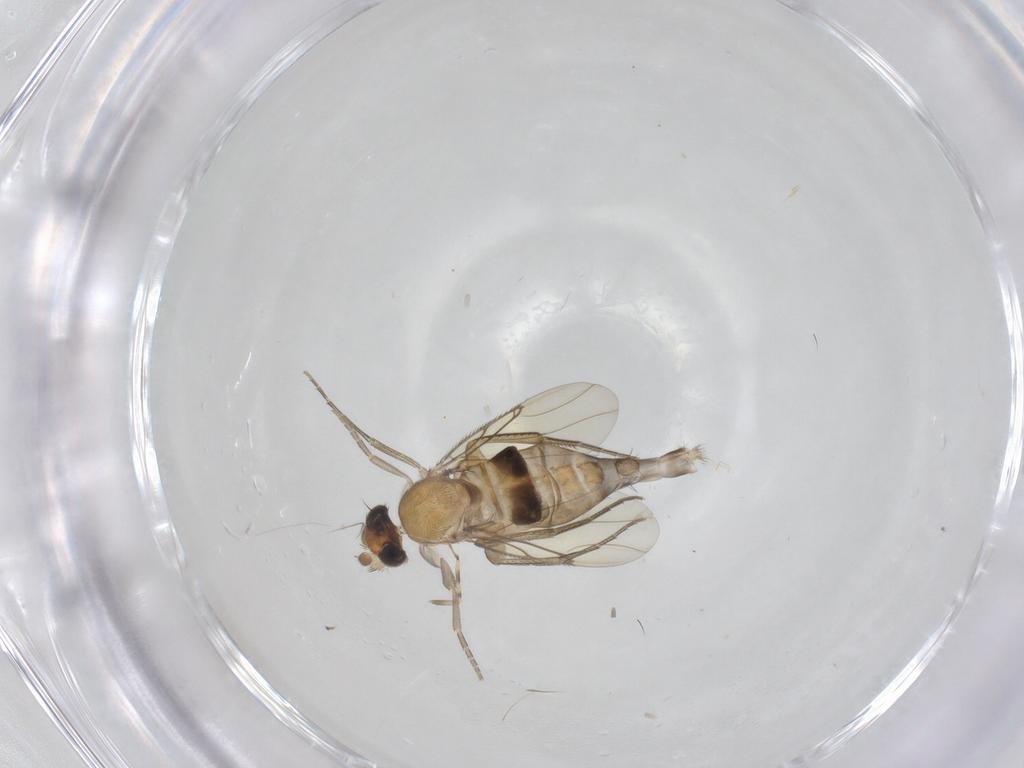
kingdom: Animalia
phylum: Arthropoda
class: Insecta
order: Diptera
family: Ceratopogonidae
